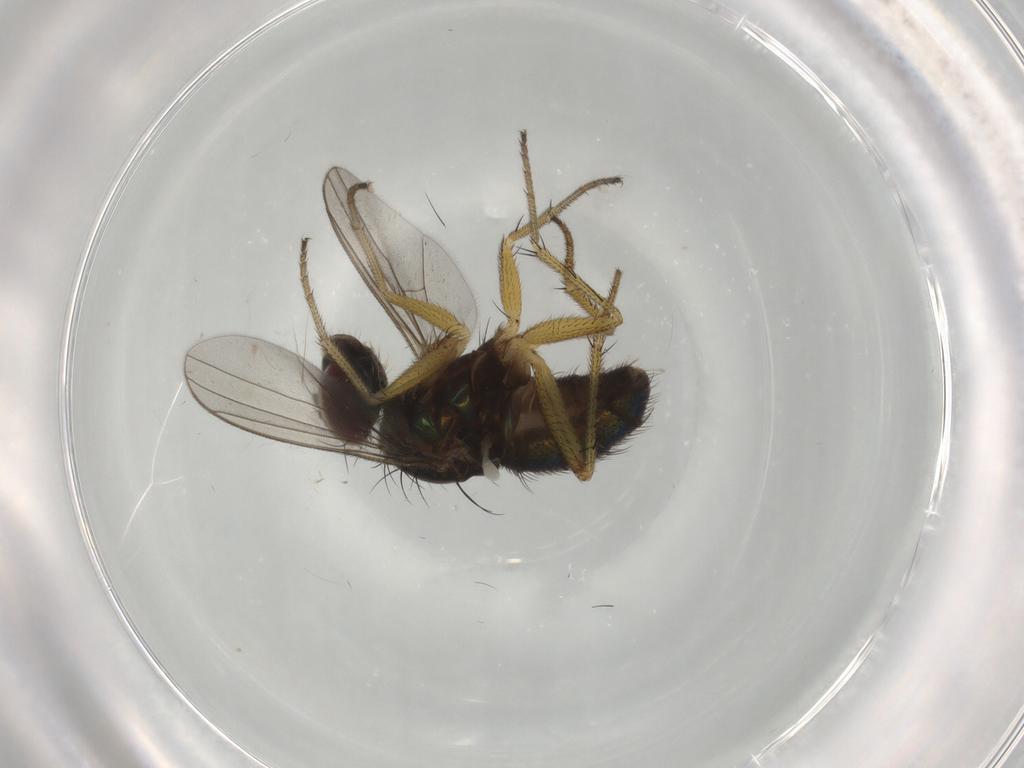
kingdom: Animalia
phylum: Arthropoda
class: Insecta
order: Diptera
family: Dolichopodidae
